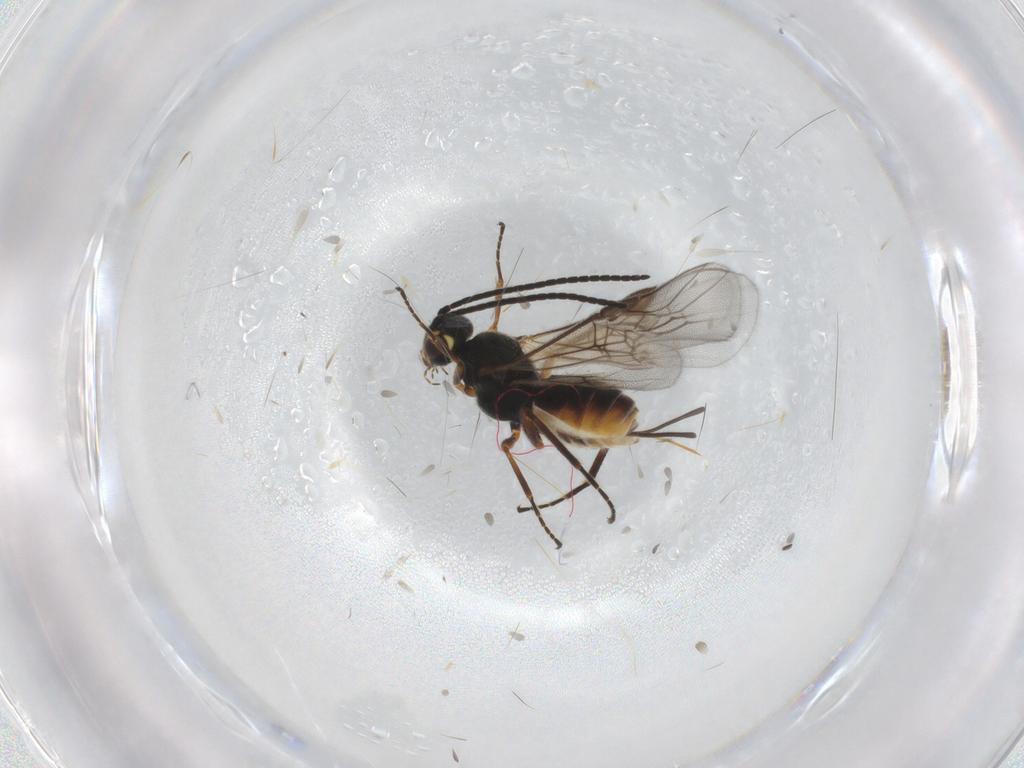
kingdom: Animalia
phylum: Arthropoda
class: Insecta
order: Hymenoptera
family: Braconidae
